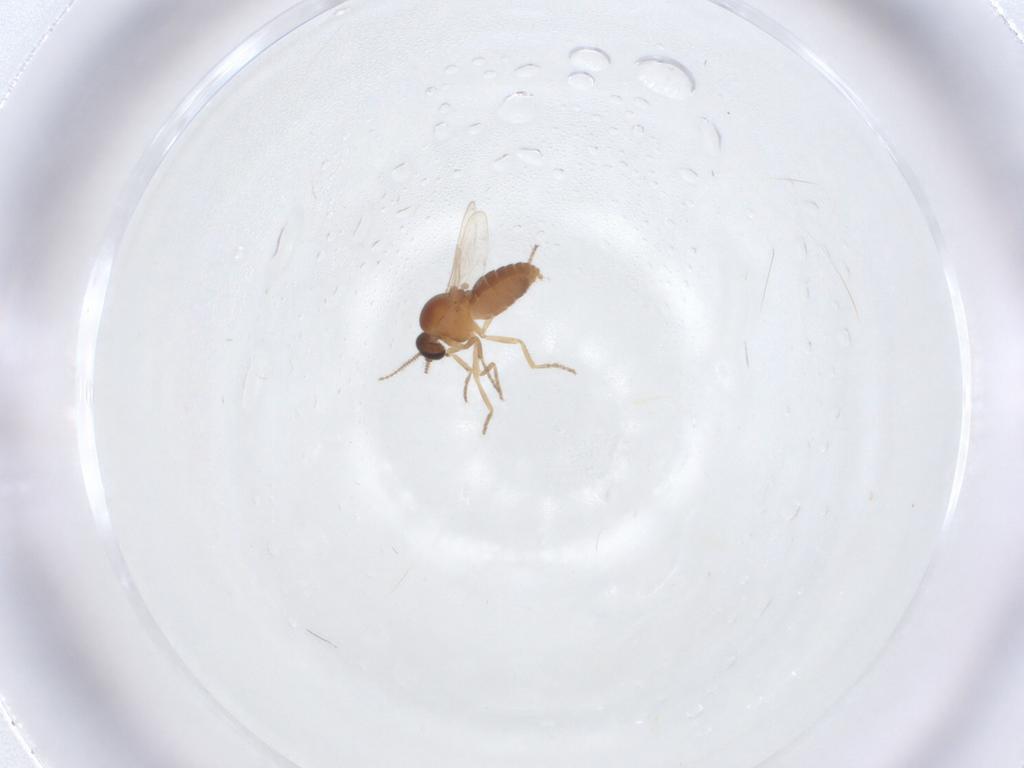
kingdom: Animalia
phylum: Arthropoda
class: Insecta
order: Diptera
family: Ceratopogonidae
